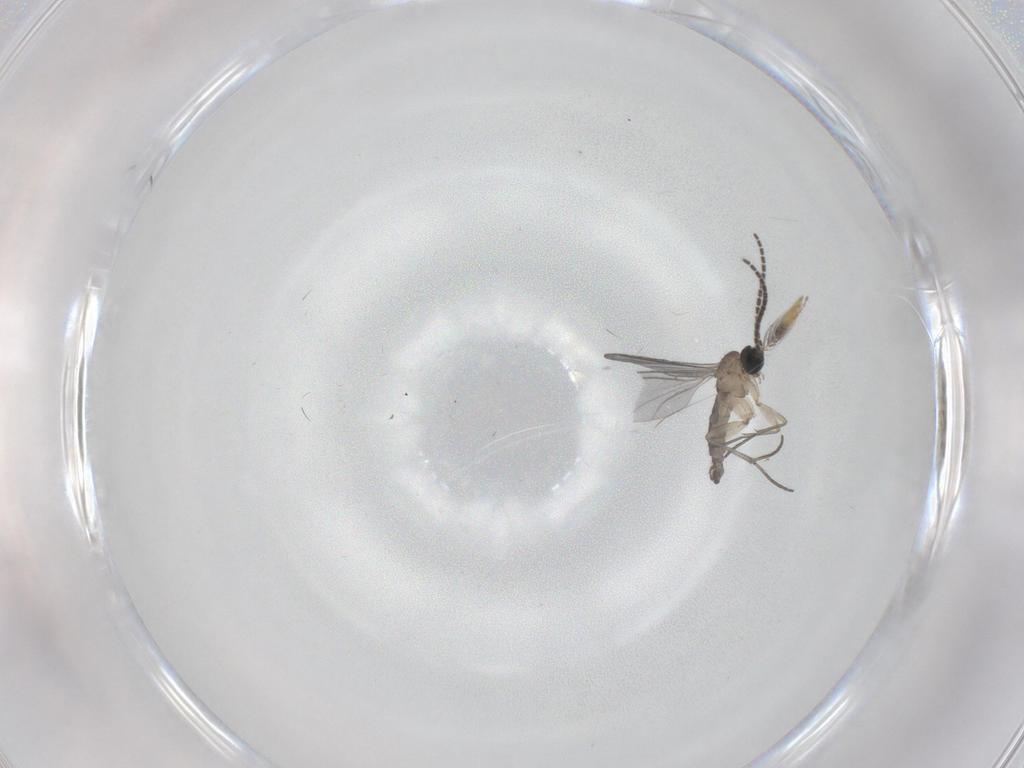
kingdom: Animalia
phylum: Arthropoda
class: Insecta
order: Diptera
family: Sciaridae
